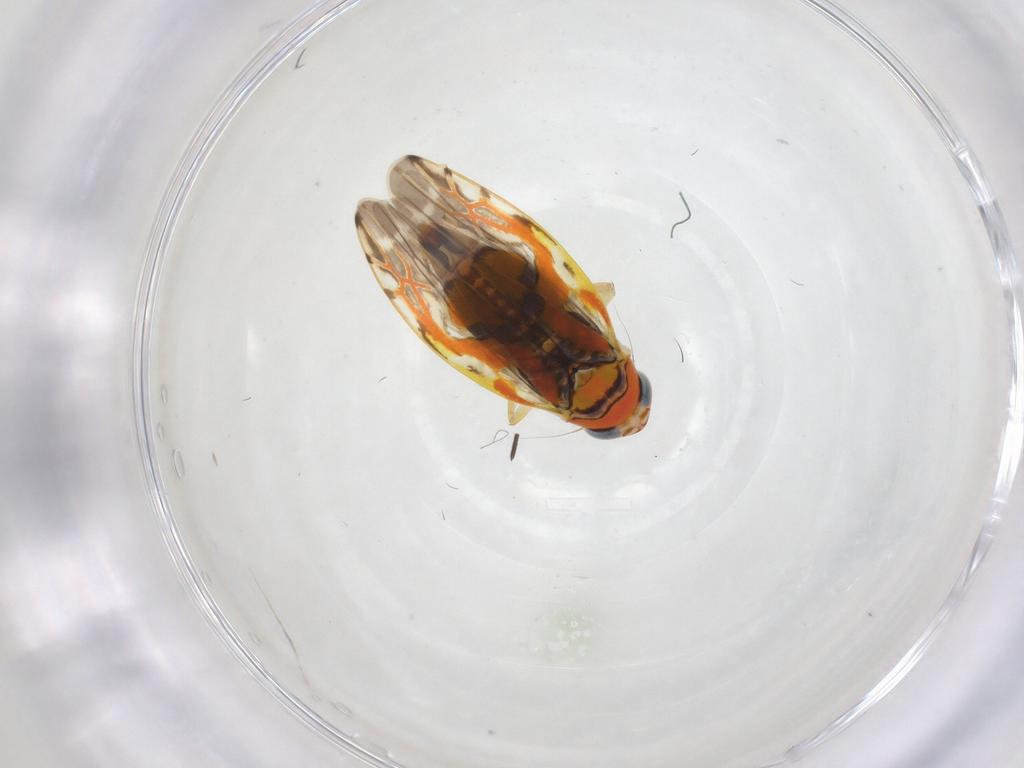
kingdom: Animalia
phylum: Arthropoda
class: Insecta
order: Hemiptera
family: Cicadellidae
